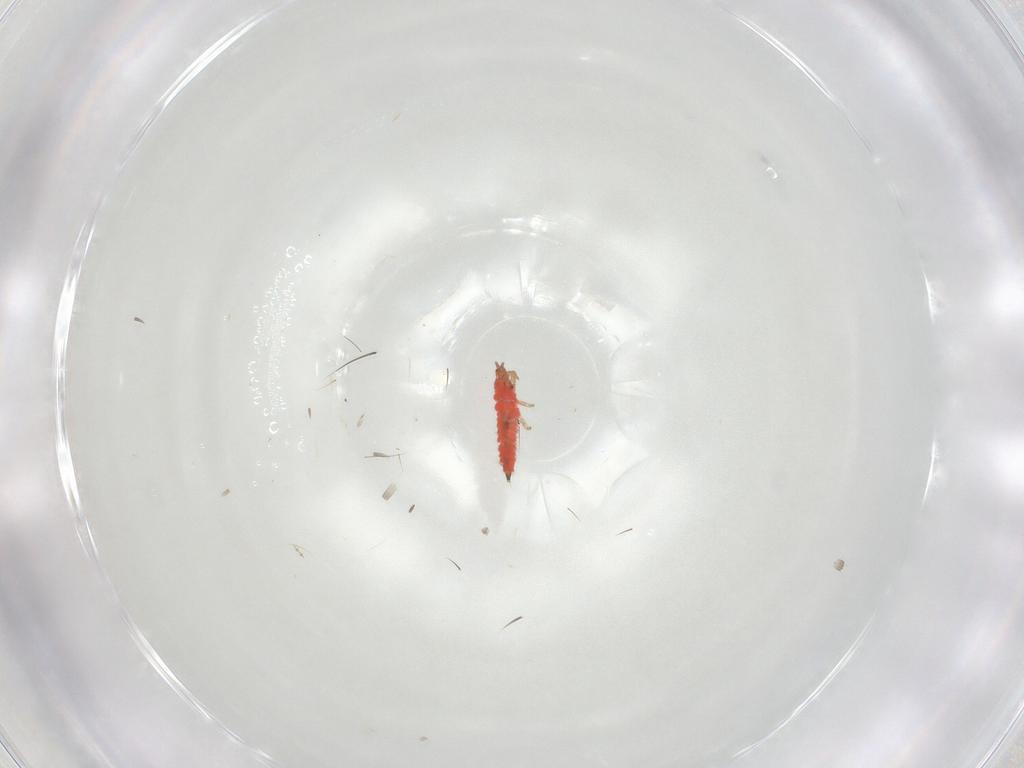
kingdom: Animalia
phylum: Arthropoda
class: Insecta
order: Thysanoptera
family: Phlaeothripidae
